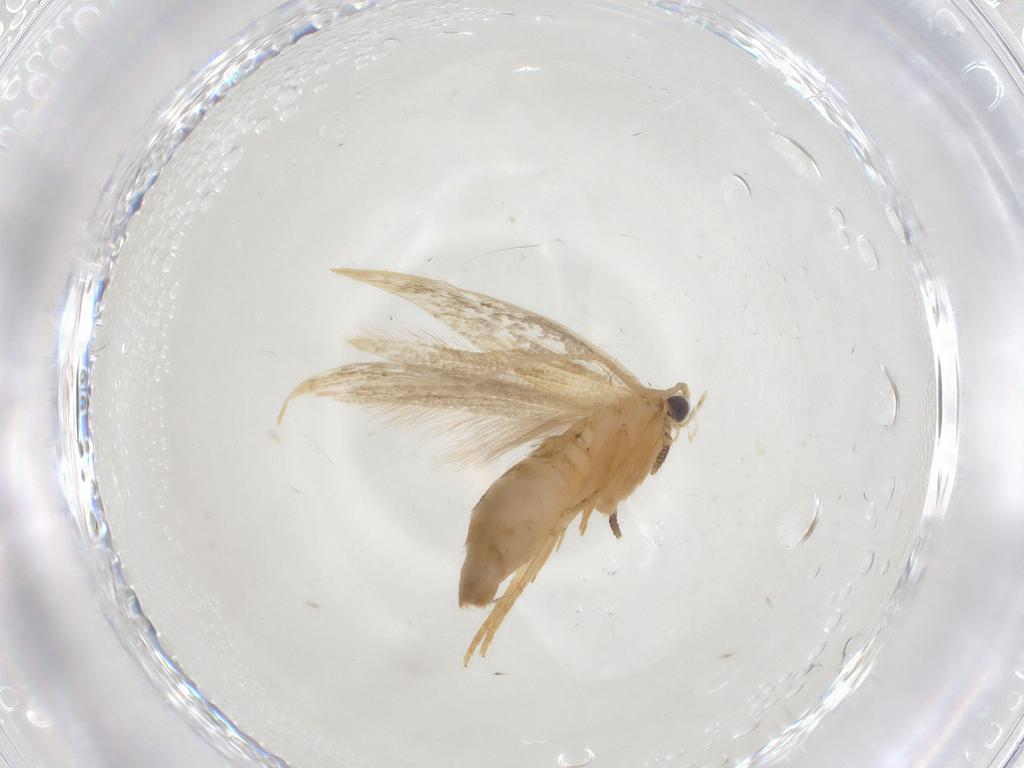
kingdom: Animalia
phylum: Arthropoda
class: Insecta
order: Lepidoptera
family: Tineidae
